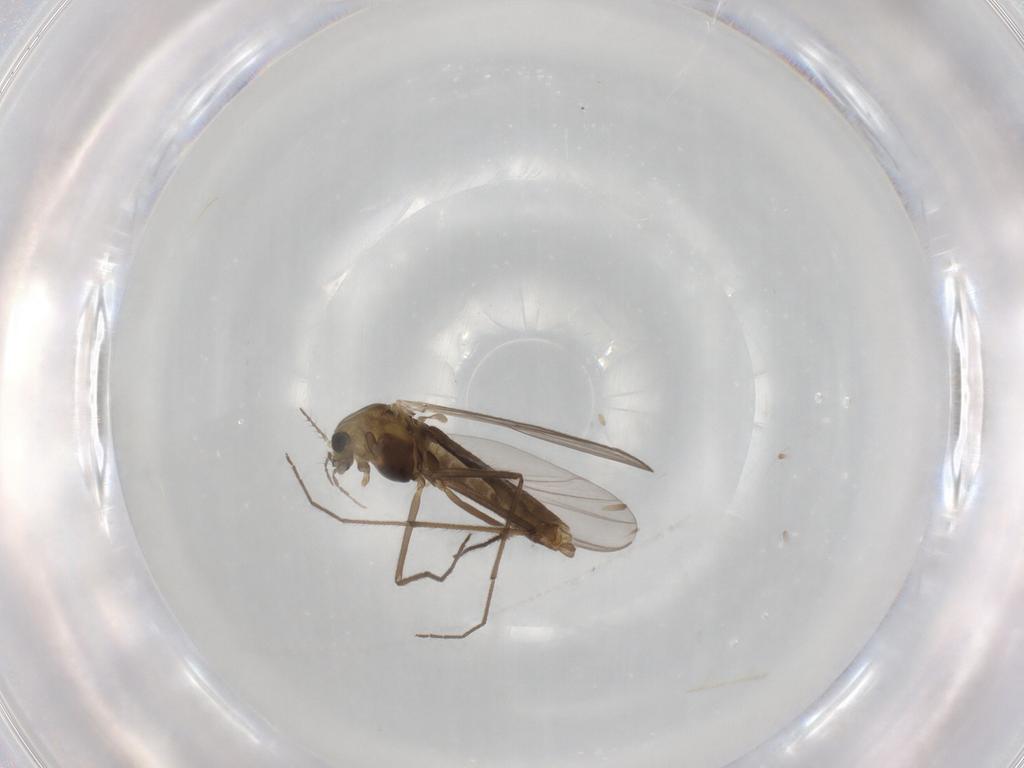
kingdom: Animalia
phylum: Arthropoda
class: Insecta
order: Diptera
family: Chironomidae
